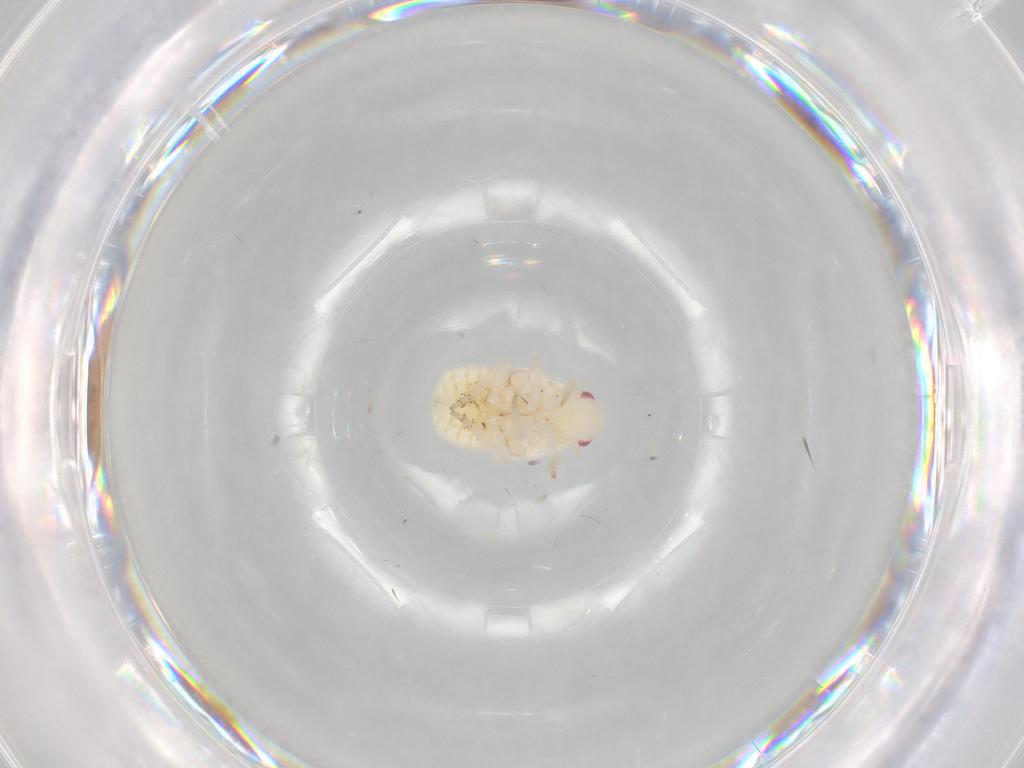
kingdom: Animalia
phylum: Arthropoda
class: Insecta
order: Hemiptera
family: Flatidae
